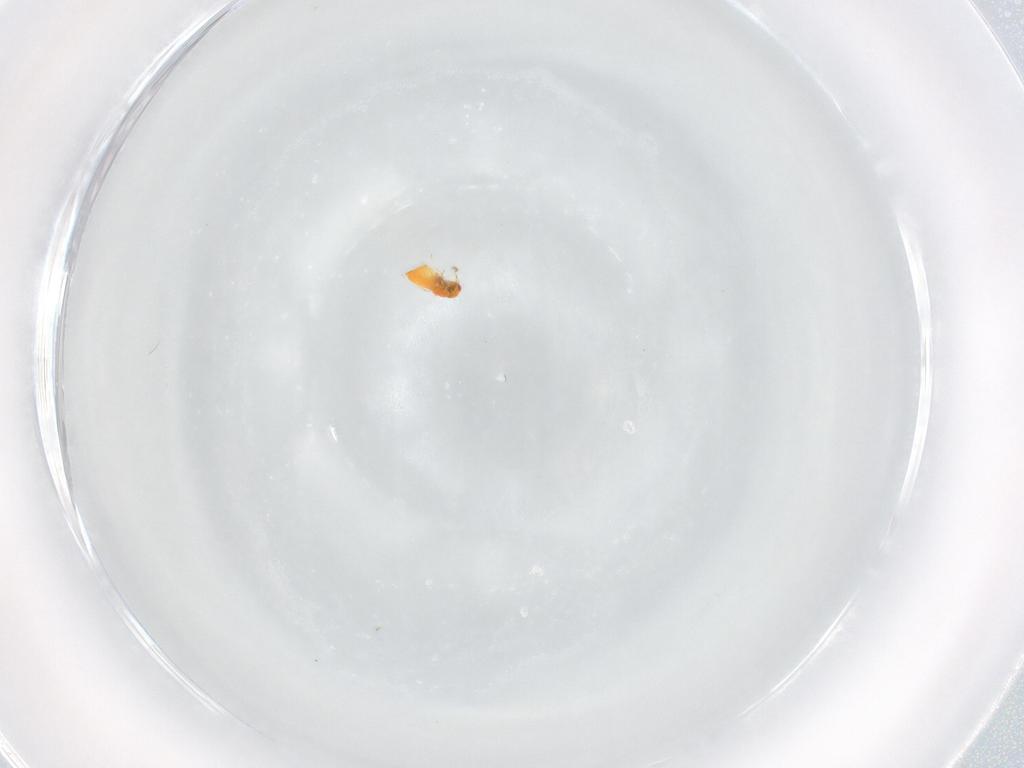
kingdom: Animalia
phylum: Arthropoda
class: Insecta
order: Hymenoptera
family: Trichogrammatidae
